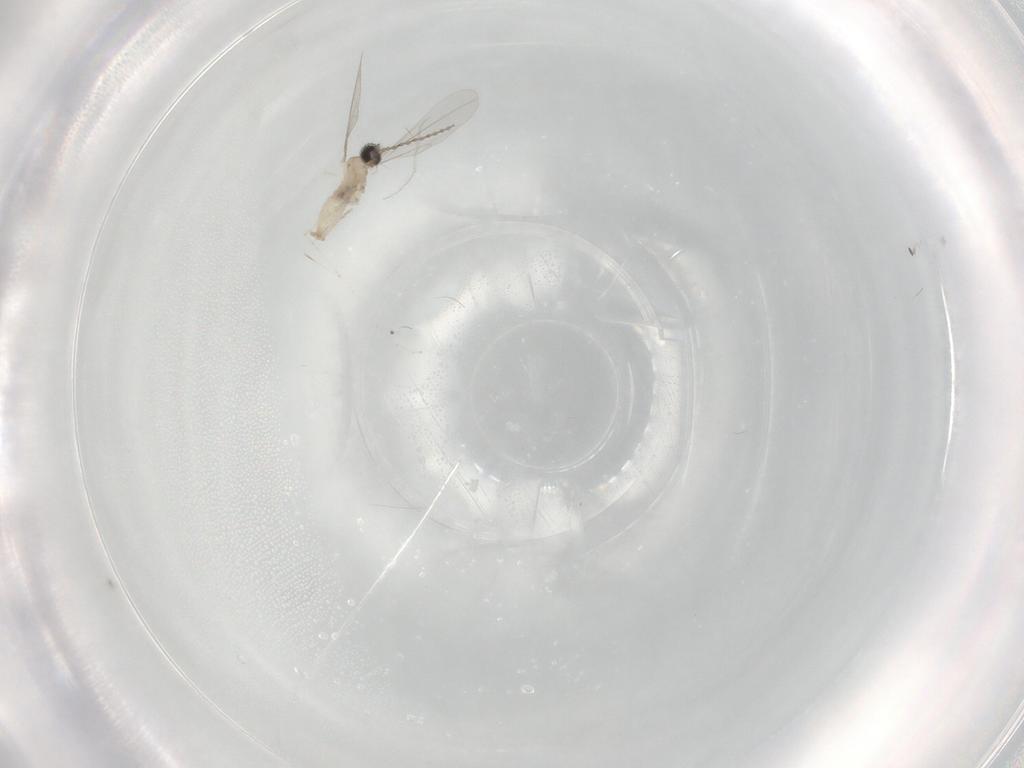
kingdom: Animalia
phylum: Arthropoda
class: Insecta
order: Diptera
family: Cecidomyiidae
